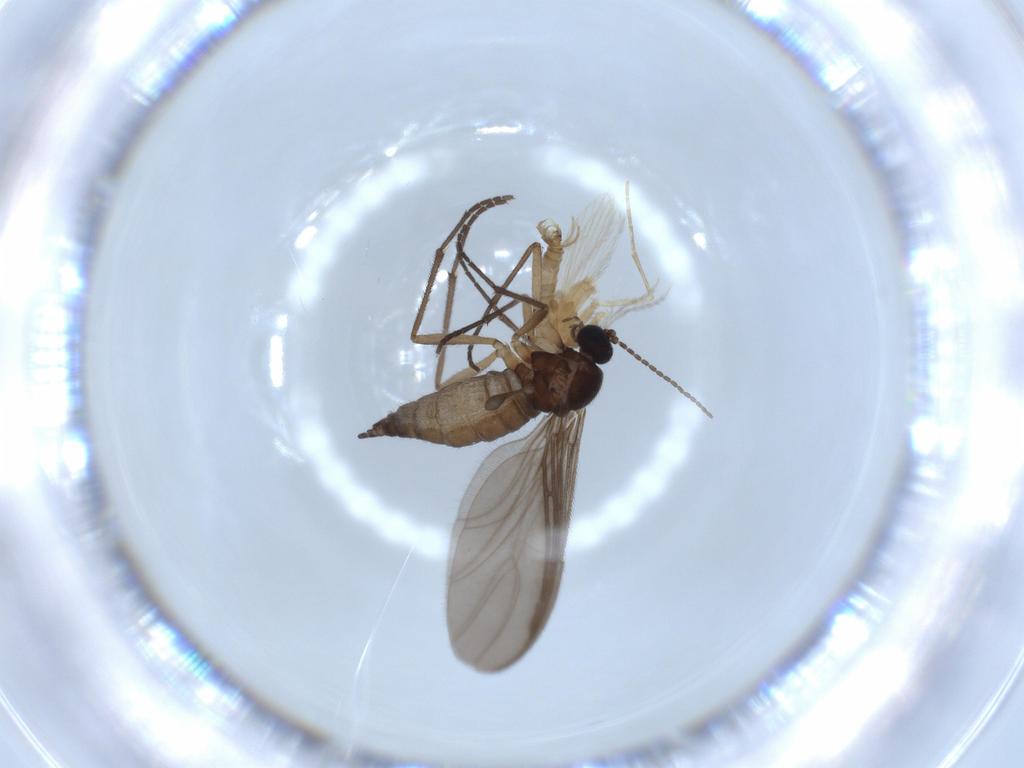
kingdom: Animalia
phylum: Arthropoda
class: Insecta
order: Diptera
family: Psychodidae
